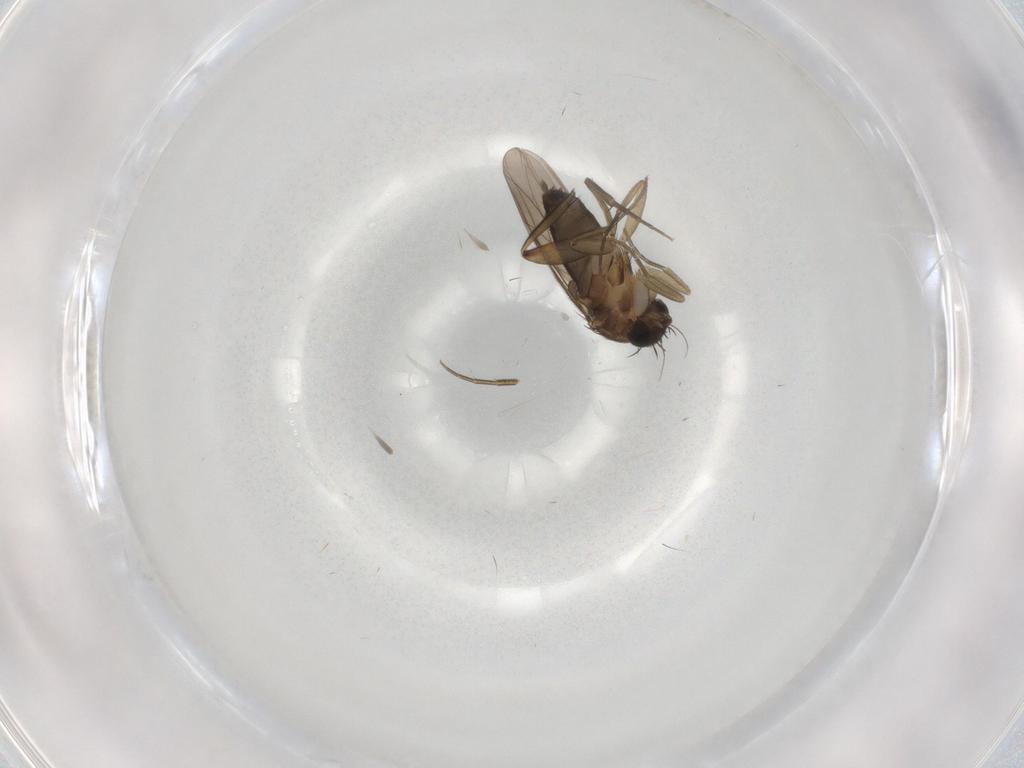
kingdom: Animalia
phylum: Arthropoda
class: Insecta
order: Diptera
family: Phoridae
